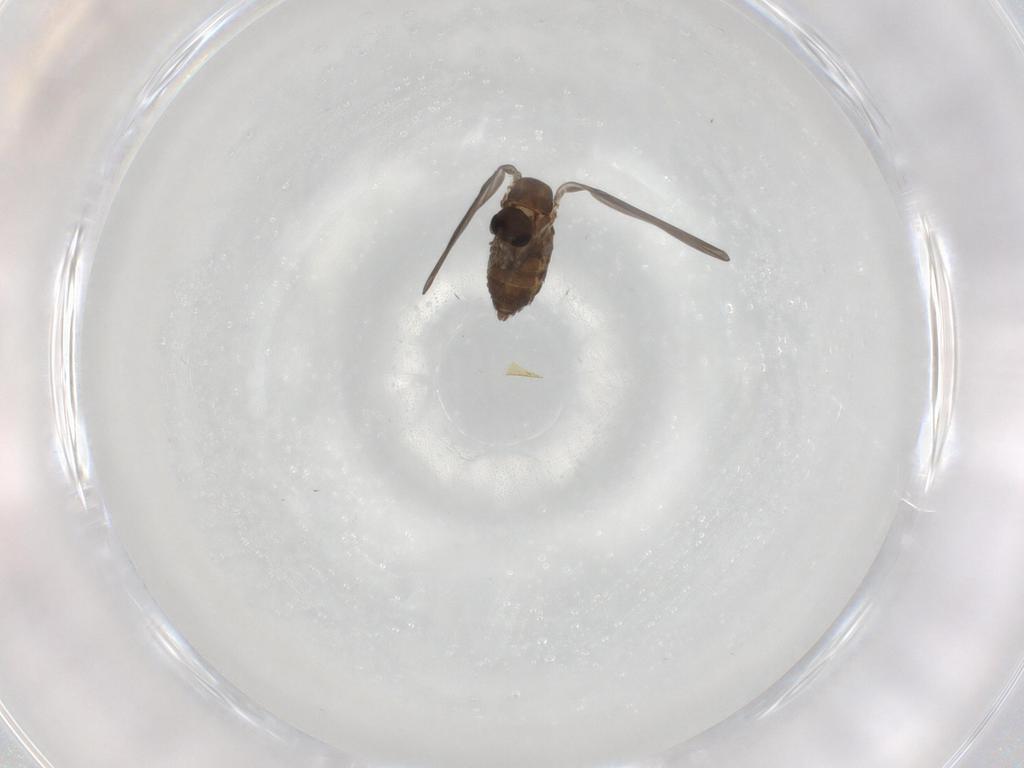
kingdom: Animalia
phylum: Arthropoda
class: Insecta
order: Diptera
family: Psychodidae
